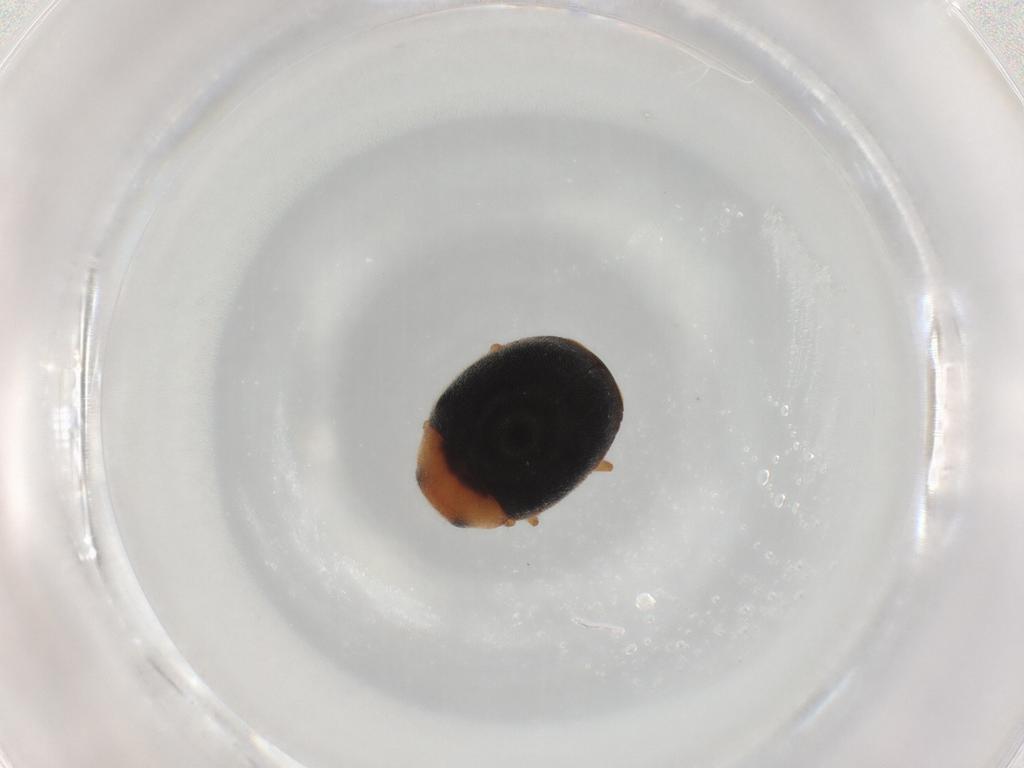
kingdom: Animalia
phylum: Arthropoda
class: Insecta
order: Coleoptera
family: Coccinellidae
